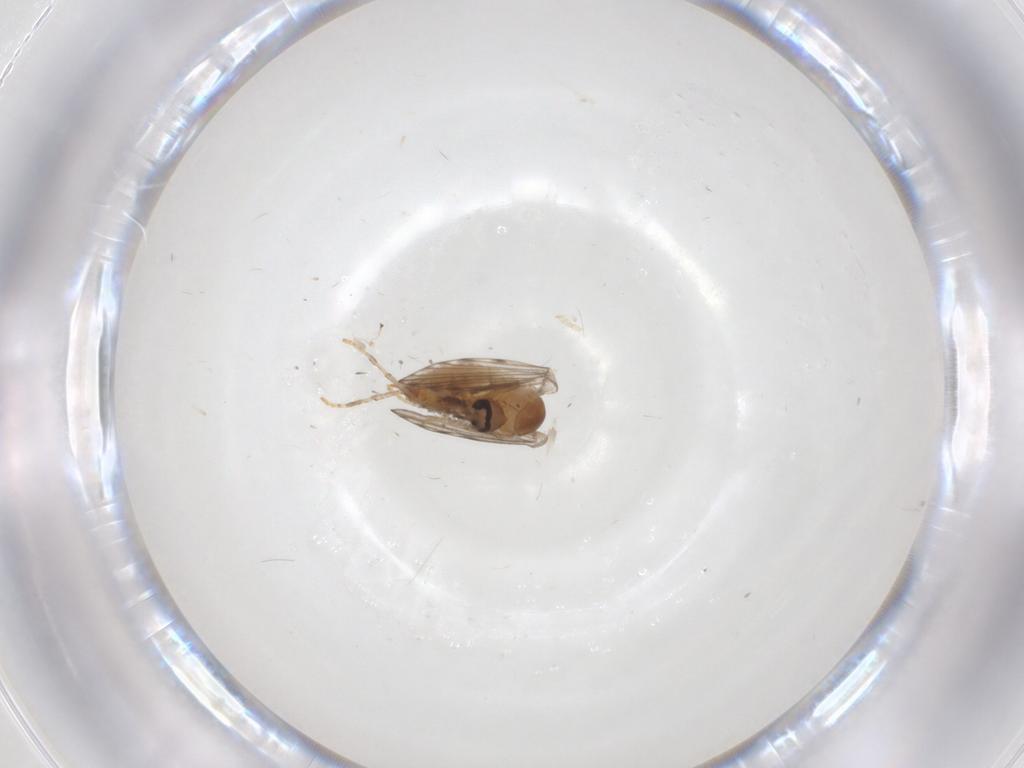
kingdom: Animalia
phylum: Arthropoda
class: Insecta
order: Diptera
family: Psychodidae
